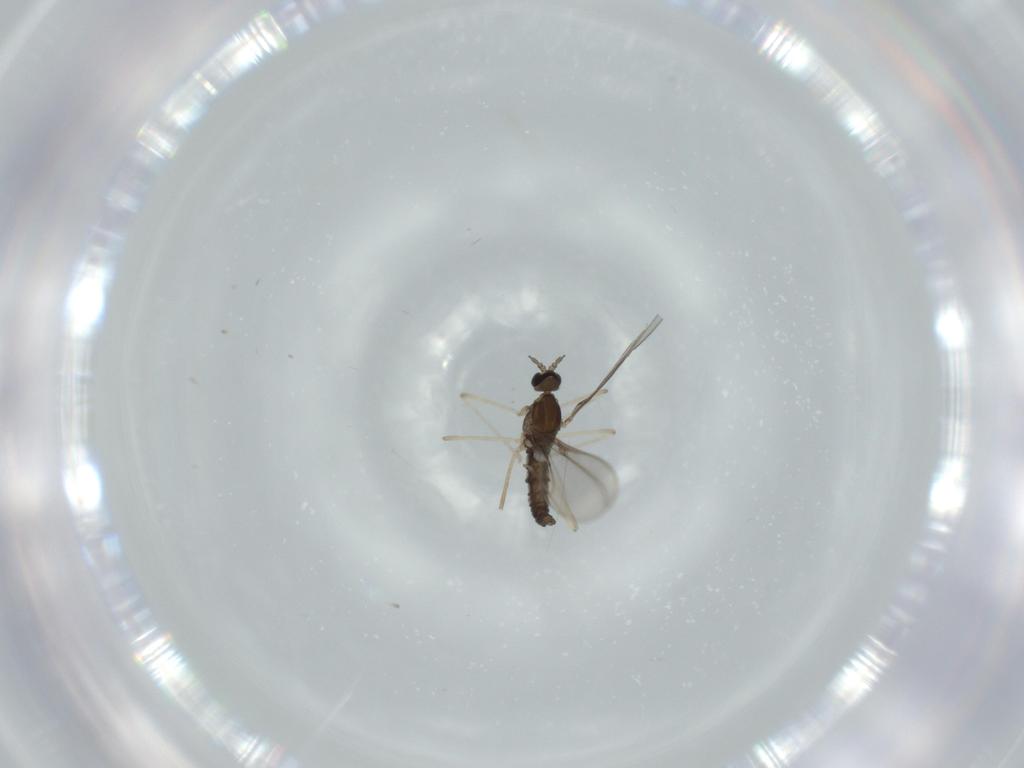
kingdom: Animalia
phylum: Arthropoda
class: Insecta
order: Diptera
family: Cecidomyiidae
